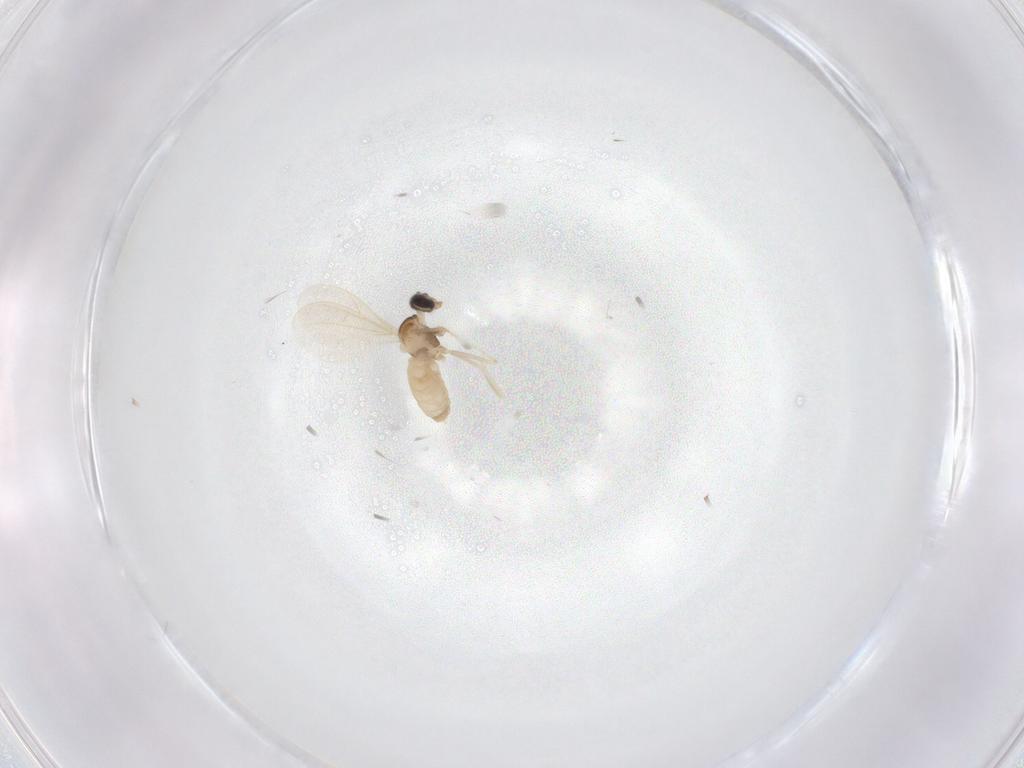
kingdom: Animalia
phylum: Arthropoda
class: Insecta
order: Diptera
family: Cecidomyiidae
